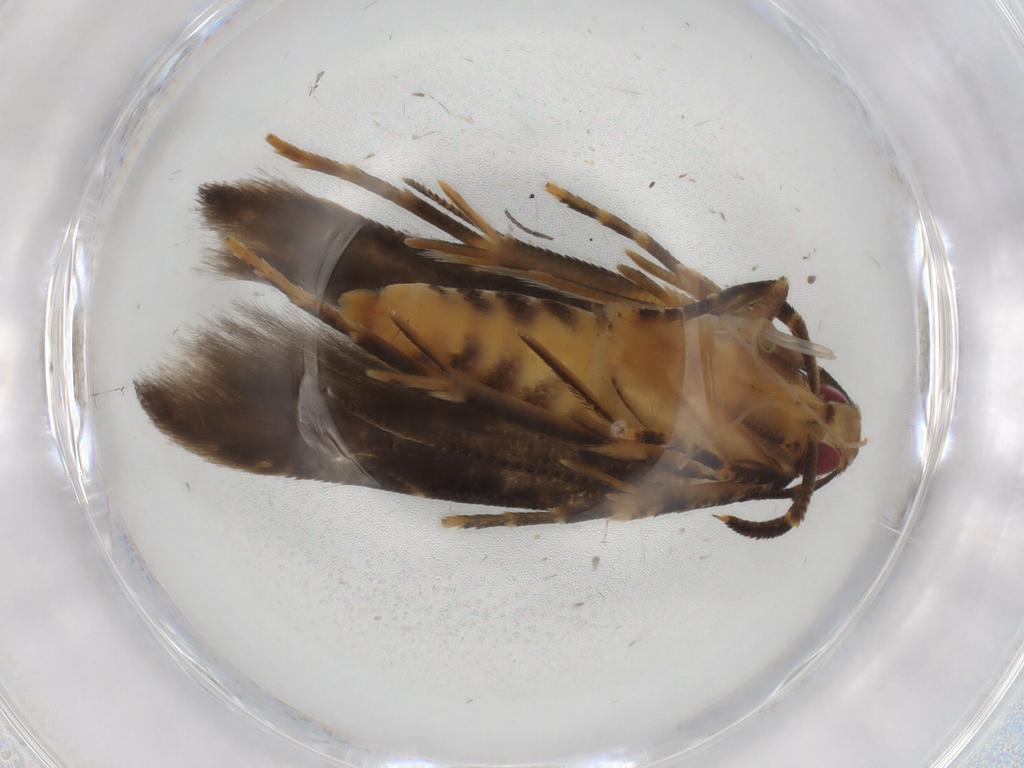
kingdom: Animalia
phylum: Arthropoda
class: Insecta
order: Lepidoptera
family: Cosmopterigidae
